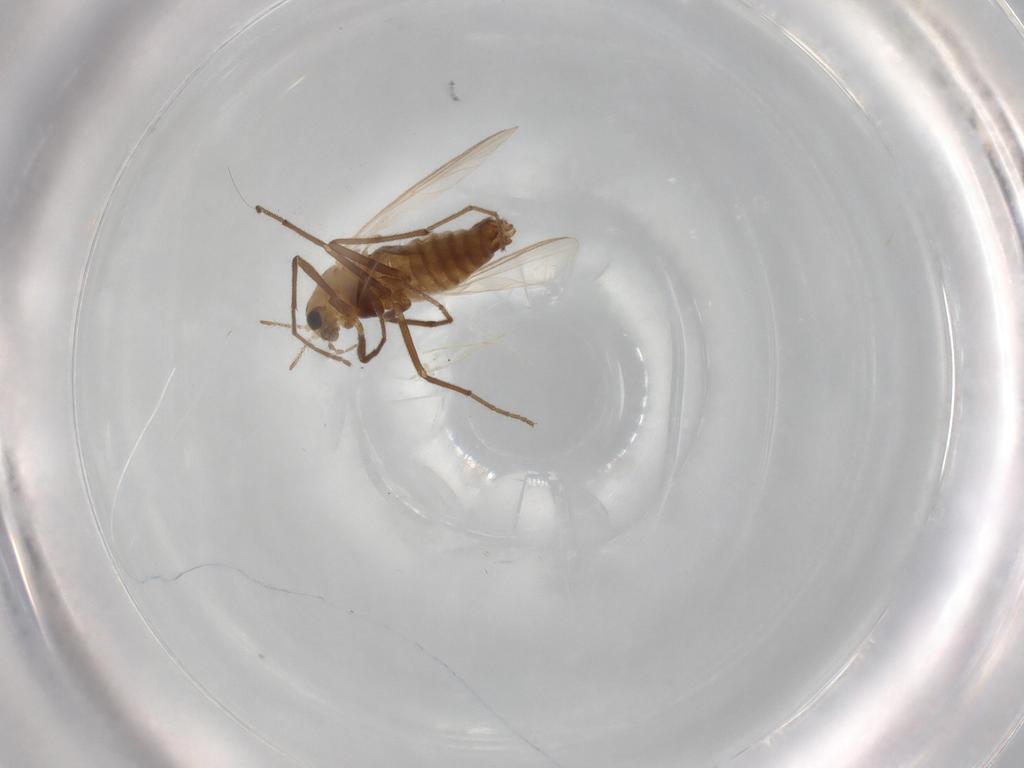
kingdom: Animalia
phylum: Arthropoda
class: Insecta
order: Diptera
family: Chironomidae
